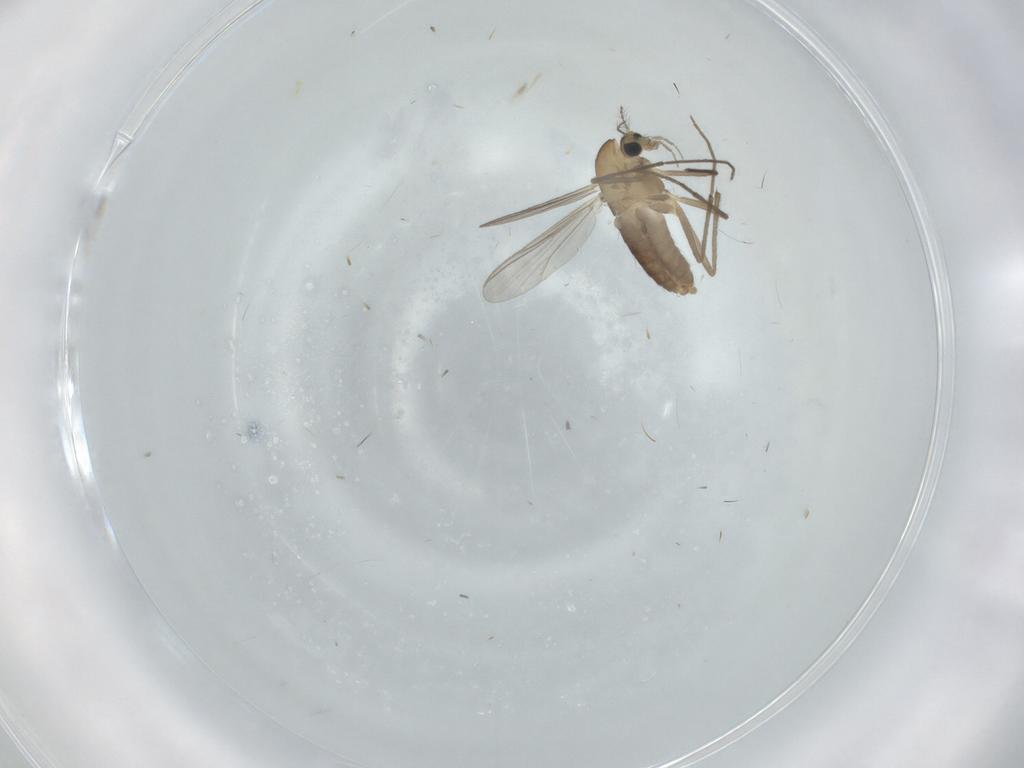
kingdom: Animalia
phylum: Arthropoda
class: Insecta
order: Diptera
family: Chironomidae
